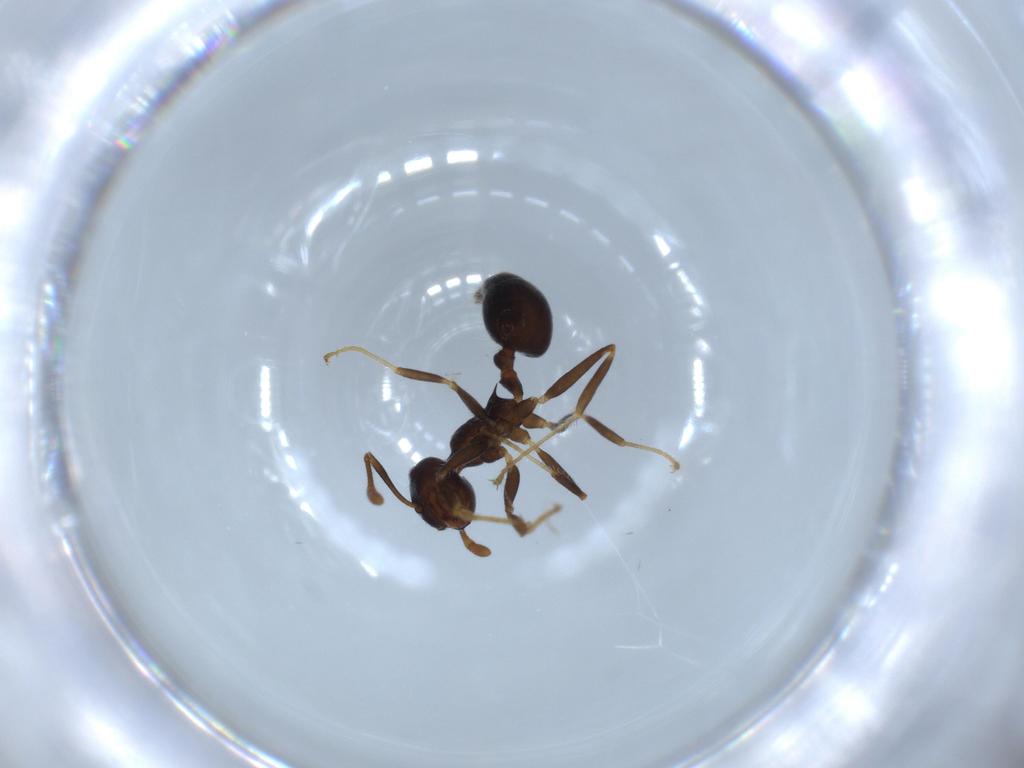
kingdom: Animalia
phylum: Arthropoda
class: Insecta
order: Hymenoptera
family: Formicidae
